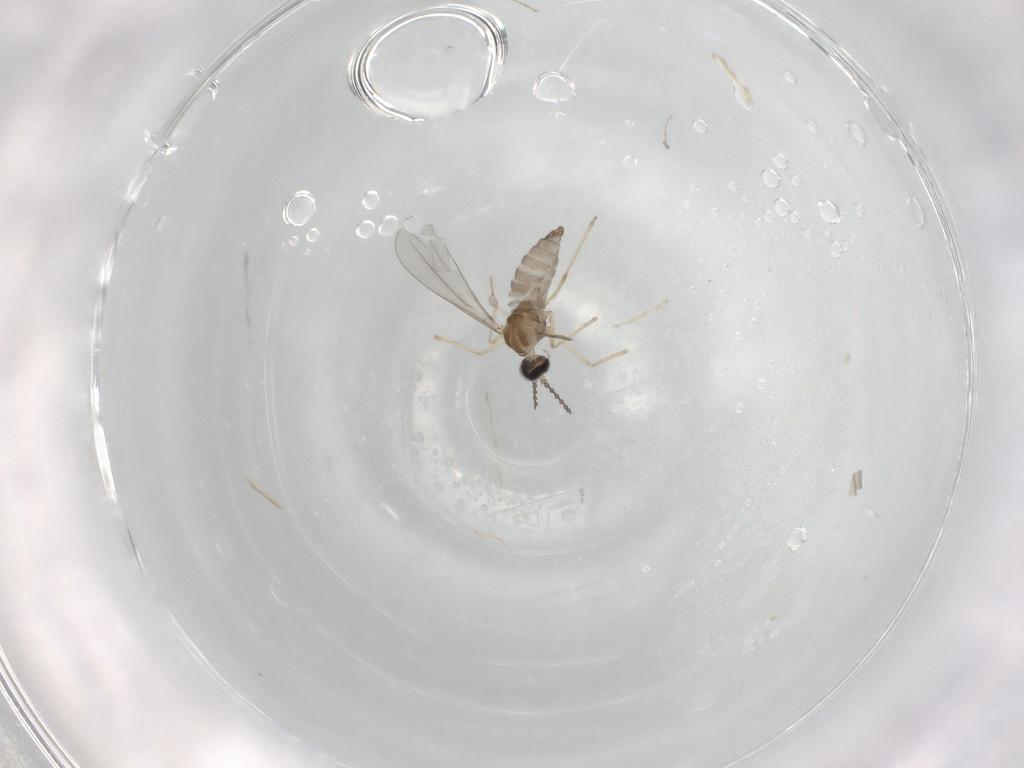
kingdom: Animalia
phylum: Arthropoda
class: Insecta
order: Diptera
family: Cecidomyiidae
